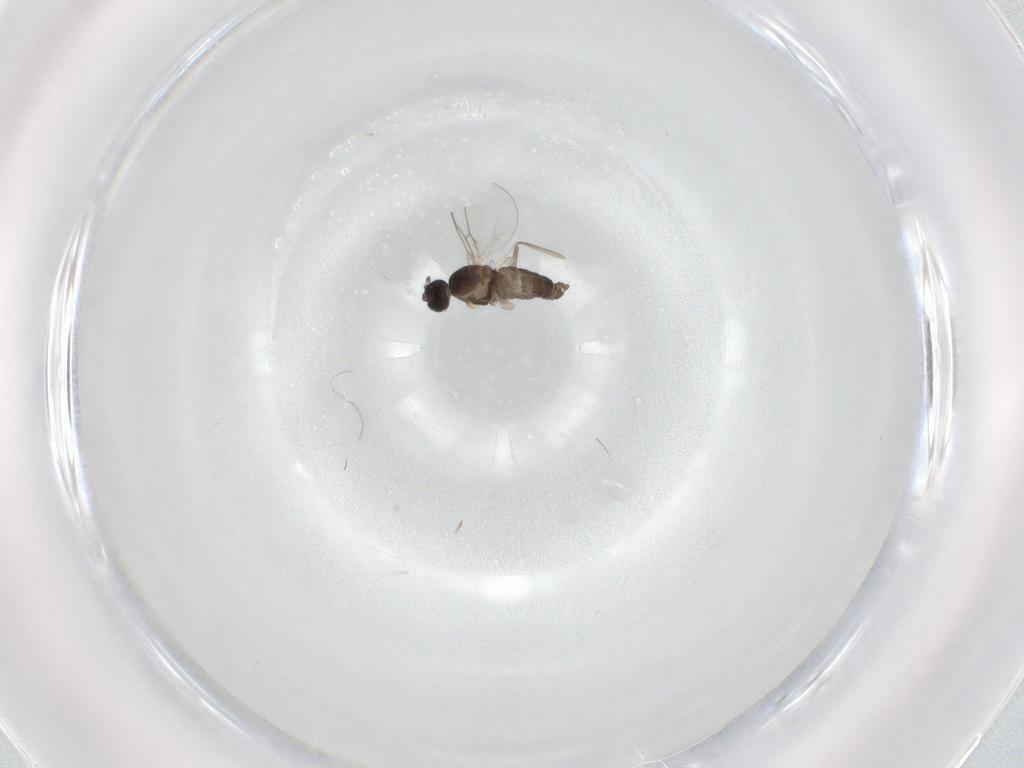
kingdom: Animalia
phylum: Arthropoda
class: Insecta
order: Diptera
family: Cecidomyiidae
